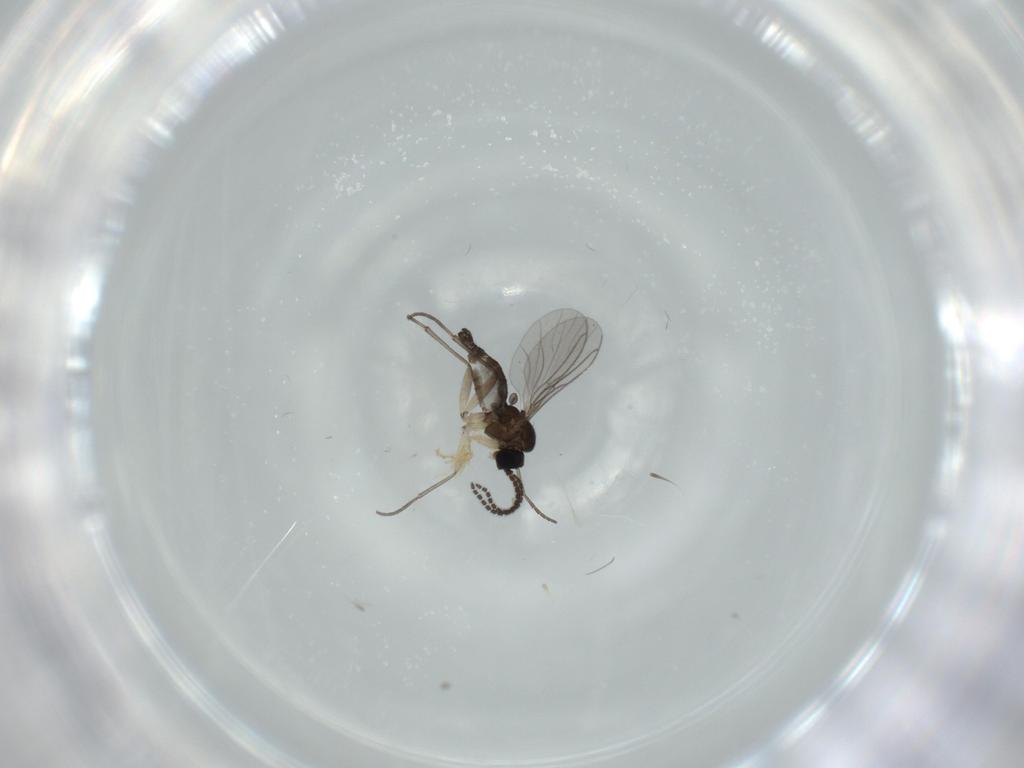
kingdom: Animalia
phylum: Arthropoda
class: Insecta
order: Diptera
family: Sciaridae
